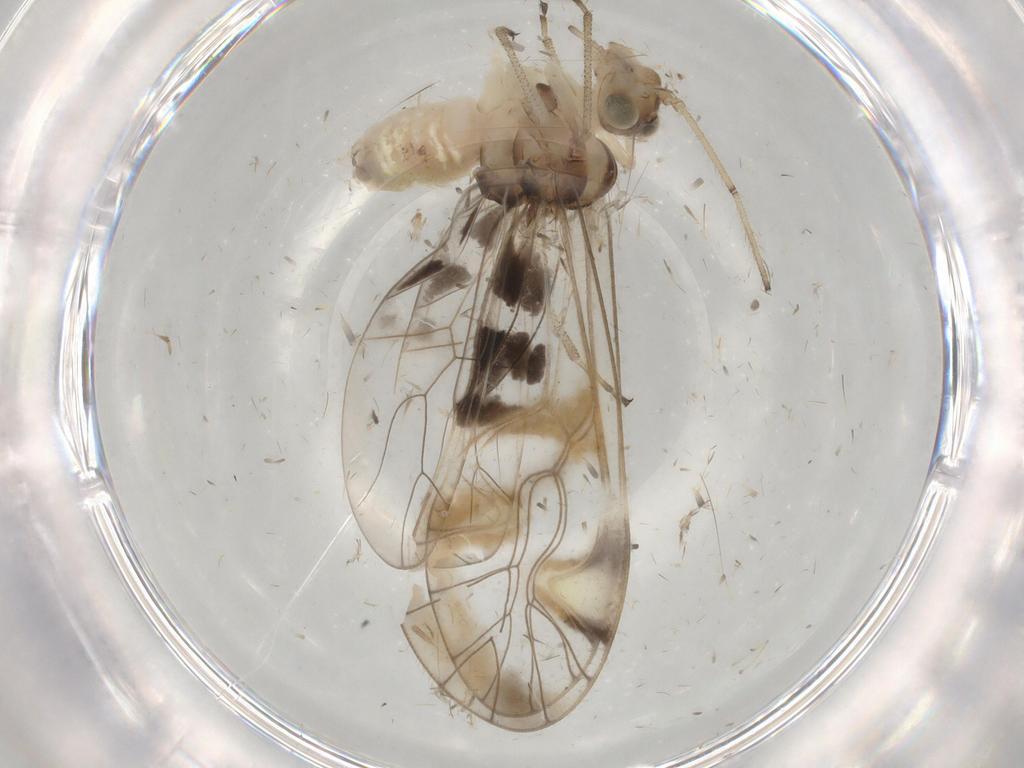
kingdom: Animalia
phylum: Arthropoda
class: Insecta
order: Psocodea
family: Amphipsocidae
